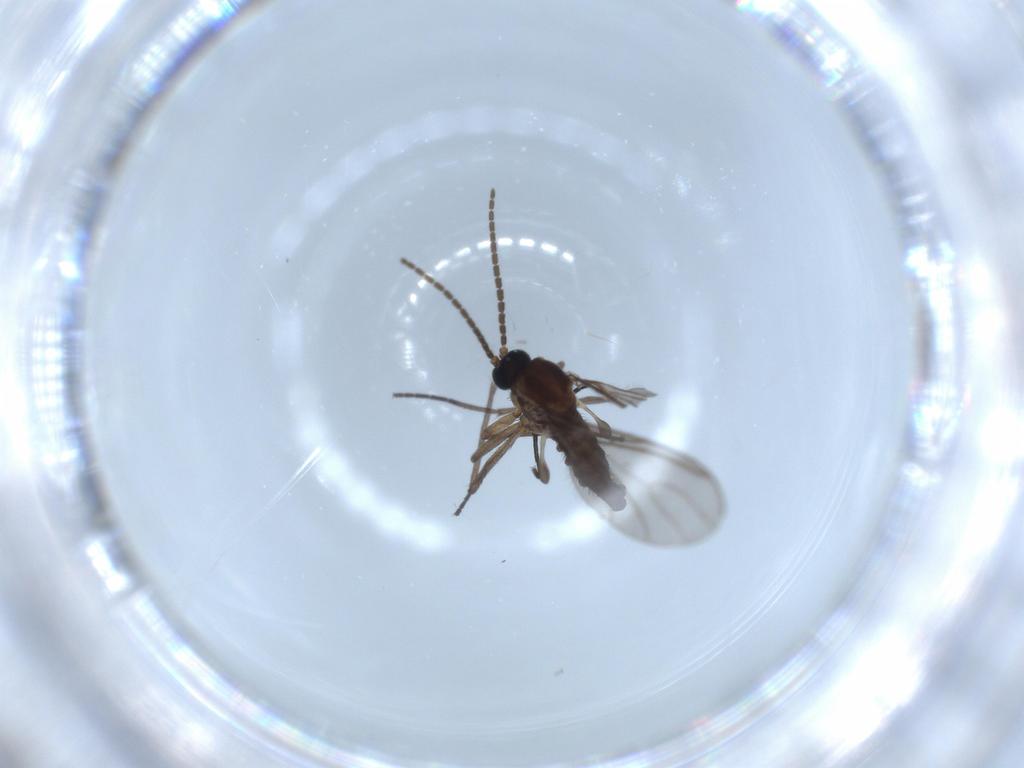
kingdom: Animalia
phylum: Arthropoda
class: Insecta
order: Diptera
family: Sciaridae
